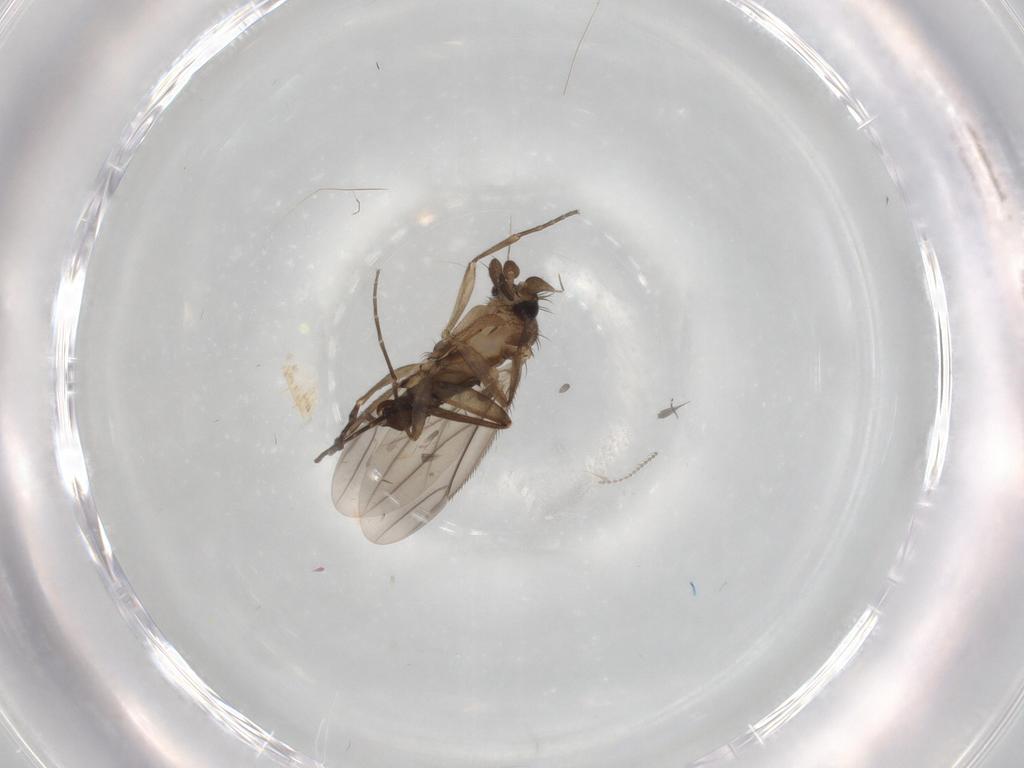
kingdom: Animalia
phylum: Arthropoda
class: Insecta
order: Diptera
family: Phoridae
